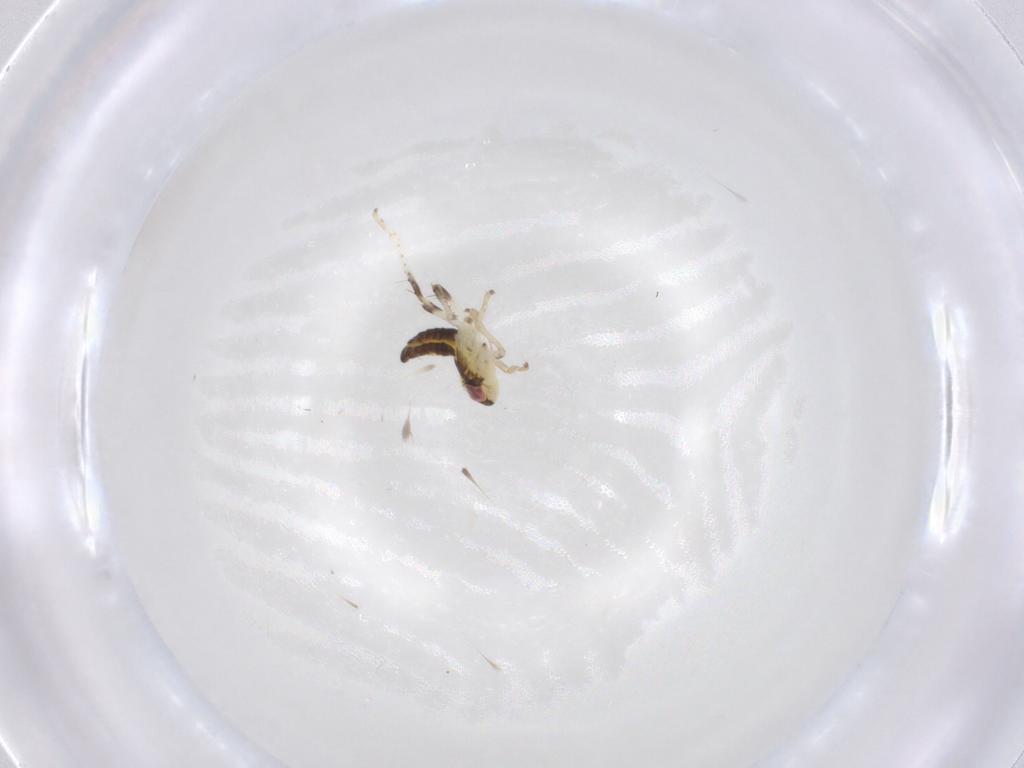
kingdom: Animalia
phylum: Arthropoda
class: Insecta
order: Hemiptera
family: Cicadellidae
